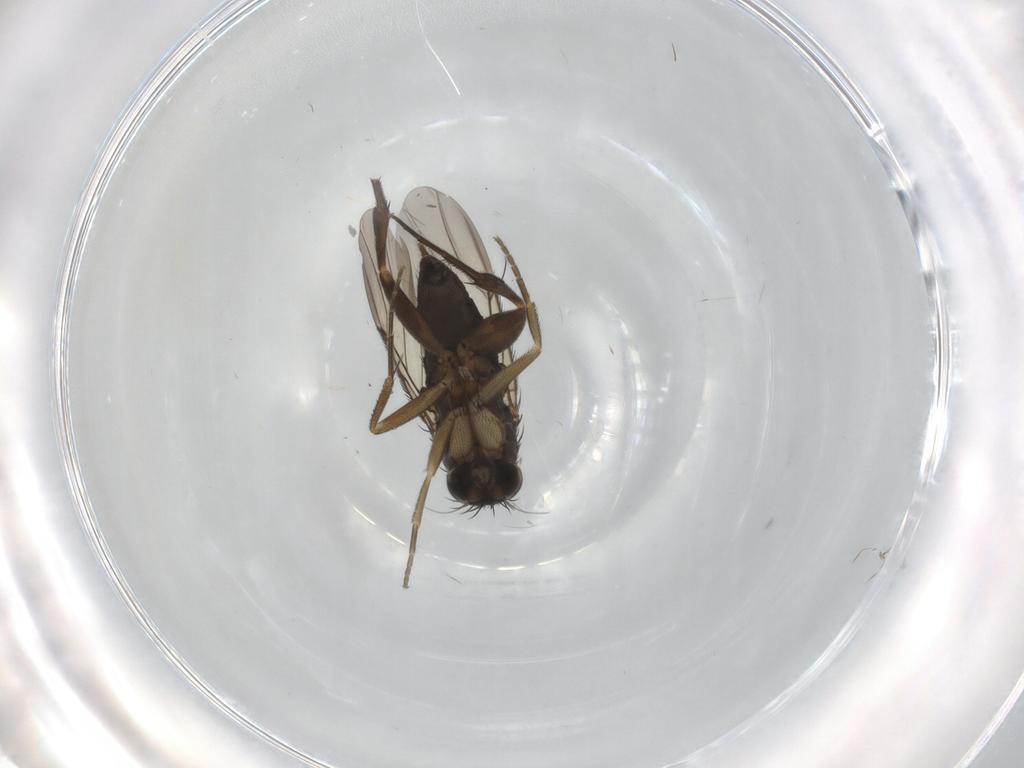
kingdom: Animalia
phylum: Arthropoda
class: Insecta
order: Diptera
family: Phoridae
